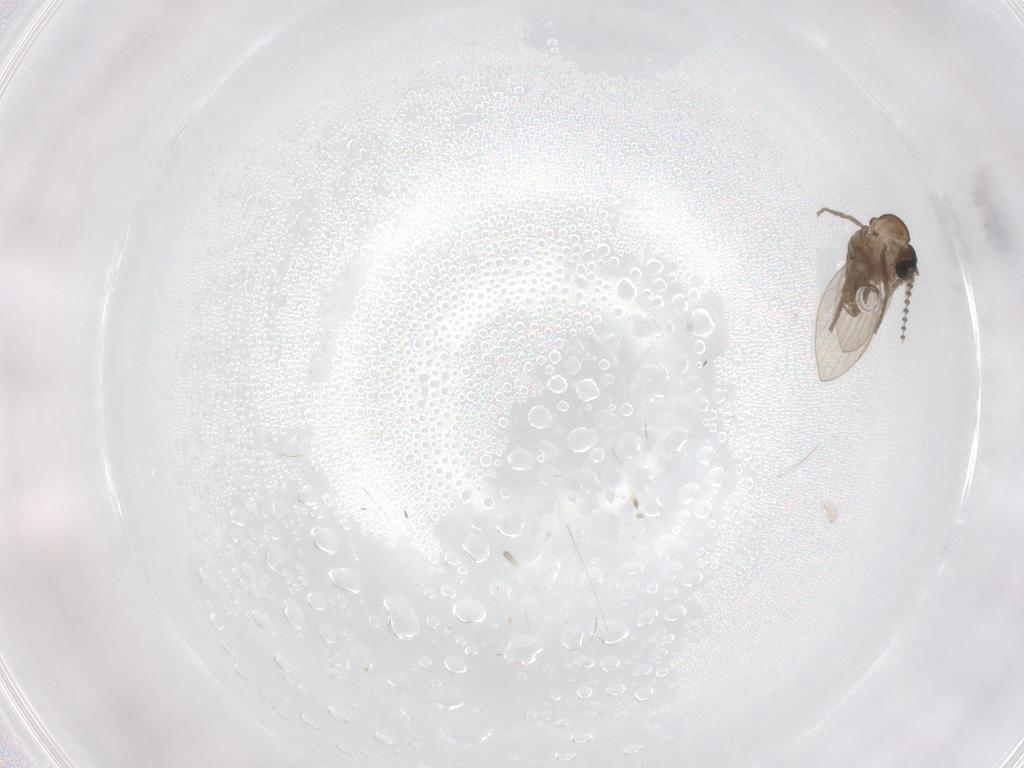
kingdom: Animalia
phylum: Arthropoda
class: Insecta
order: Diptera
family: Psychodidae
